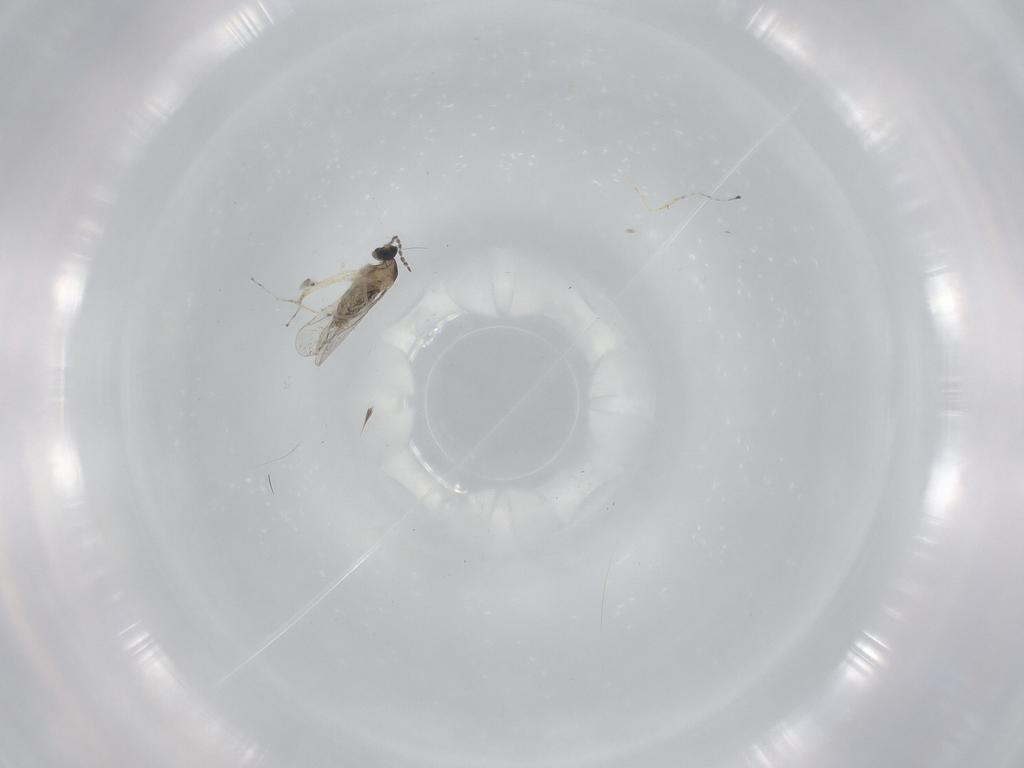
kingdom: Animalia
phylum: Arthropoda
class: Insecta
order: Diptera
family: Cecidomyiidae
